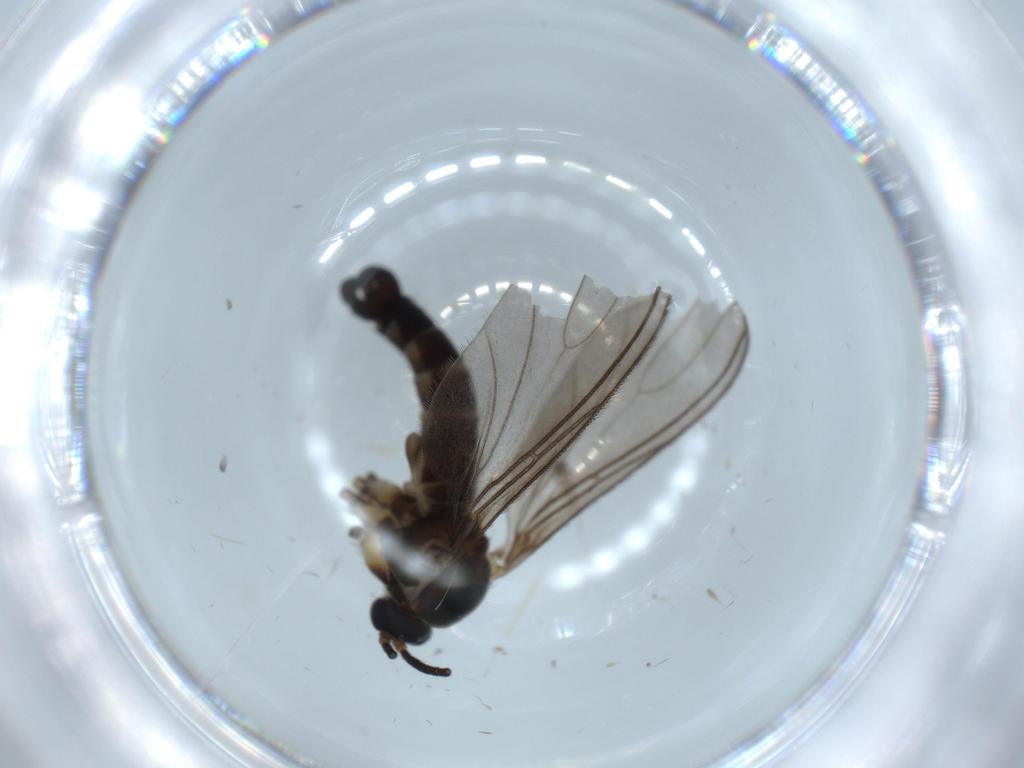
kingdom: Animalia
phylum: Arthropoda
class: Insecta
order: Diptera
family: Sciaridae
